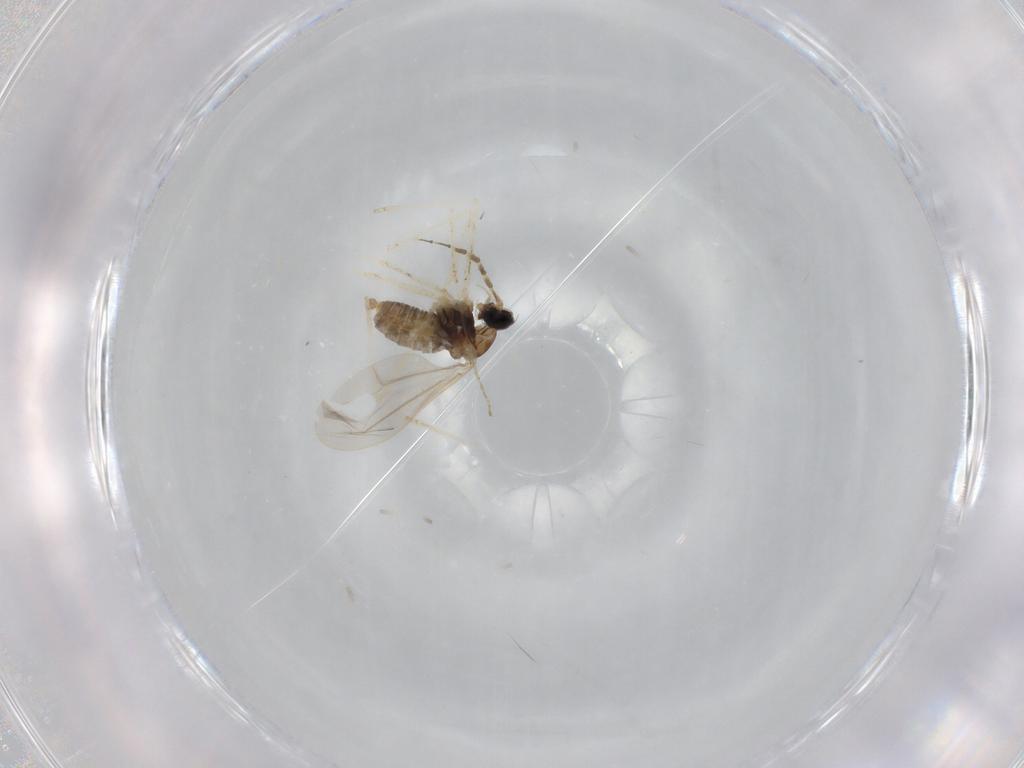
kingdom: Animalia
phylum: Arthropoda
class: Insecta
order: Diptera
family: Cecidomyiidae
